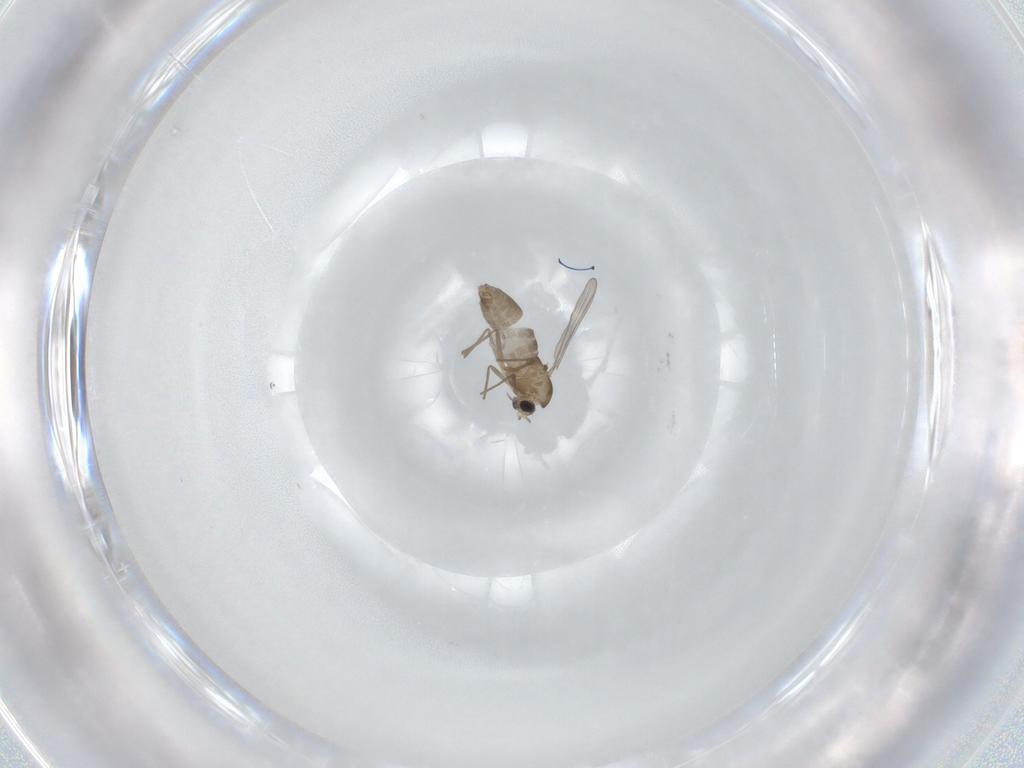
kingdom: Animalia
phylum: Arthropoda
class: Insecta
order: Diptera
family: Chironomidae
